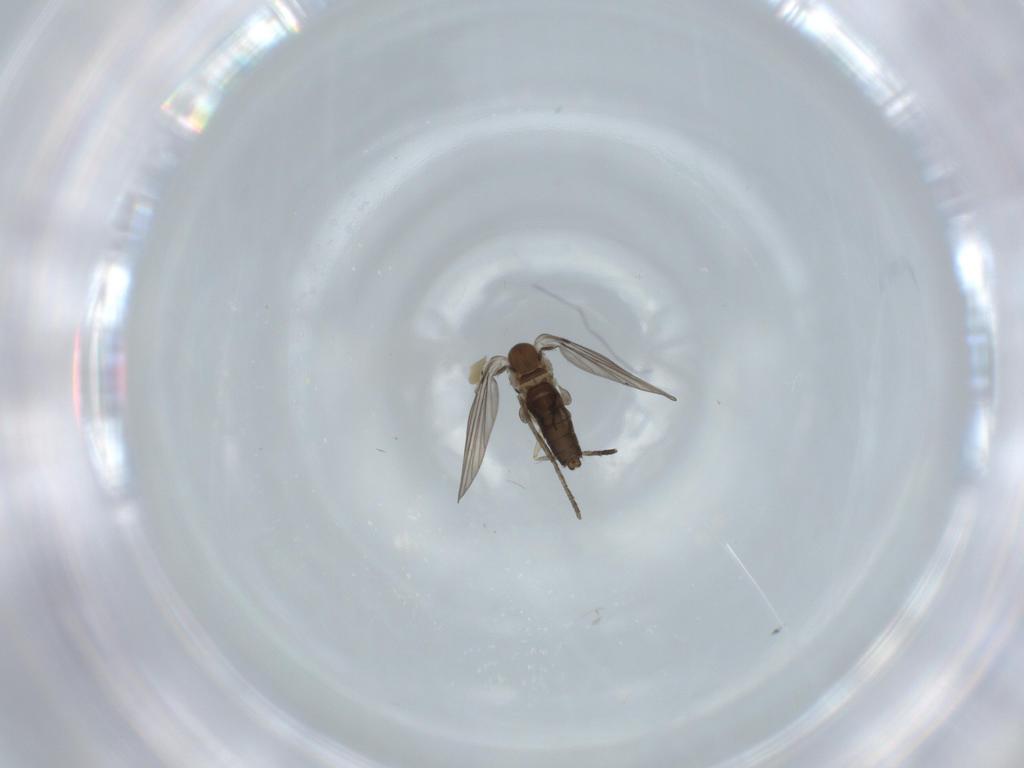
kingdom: Animalia
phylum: Arthropoda
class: Insecta
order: Diptera
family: Psychodidae
